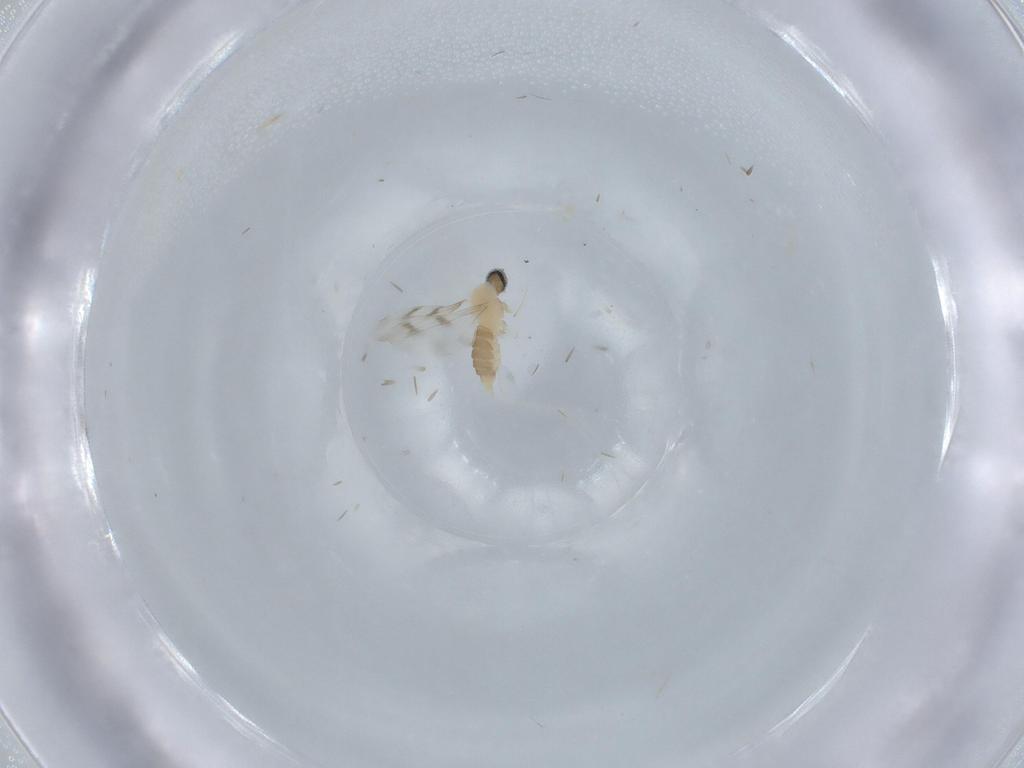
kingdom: Animalia
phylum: Arthropoda
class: Insecta
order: Diptera
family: Cecidomyiidae
